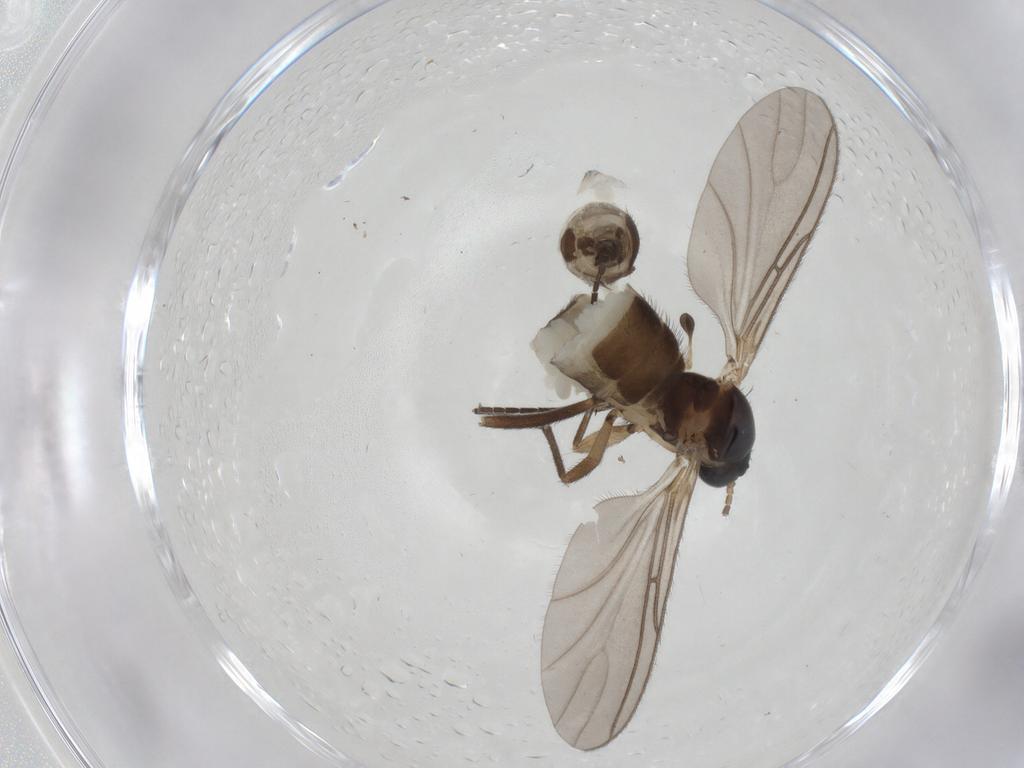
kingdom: Animalia
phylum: Arthropoda
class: Insecta
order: Diptera
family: Sciaridae
